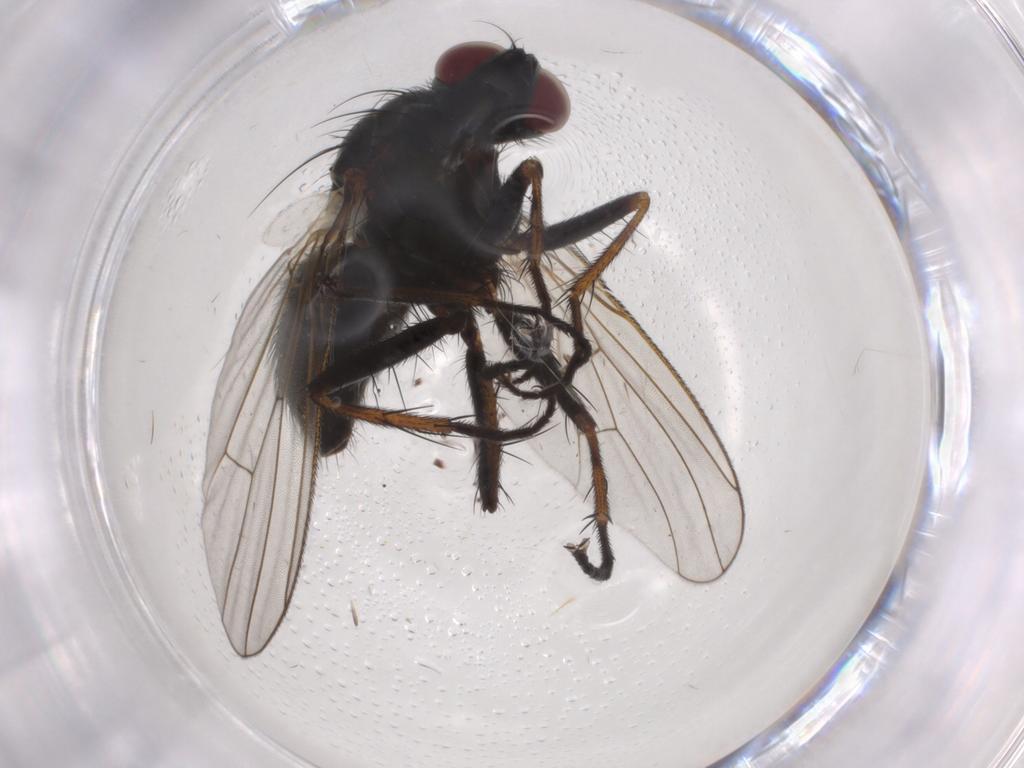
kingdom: Animalia
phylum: Arthropoda
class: Insecta
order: Diptera
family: Muscidae
